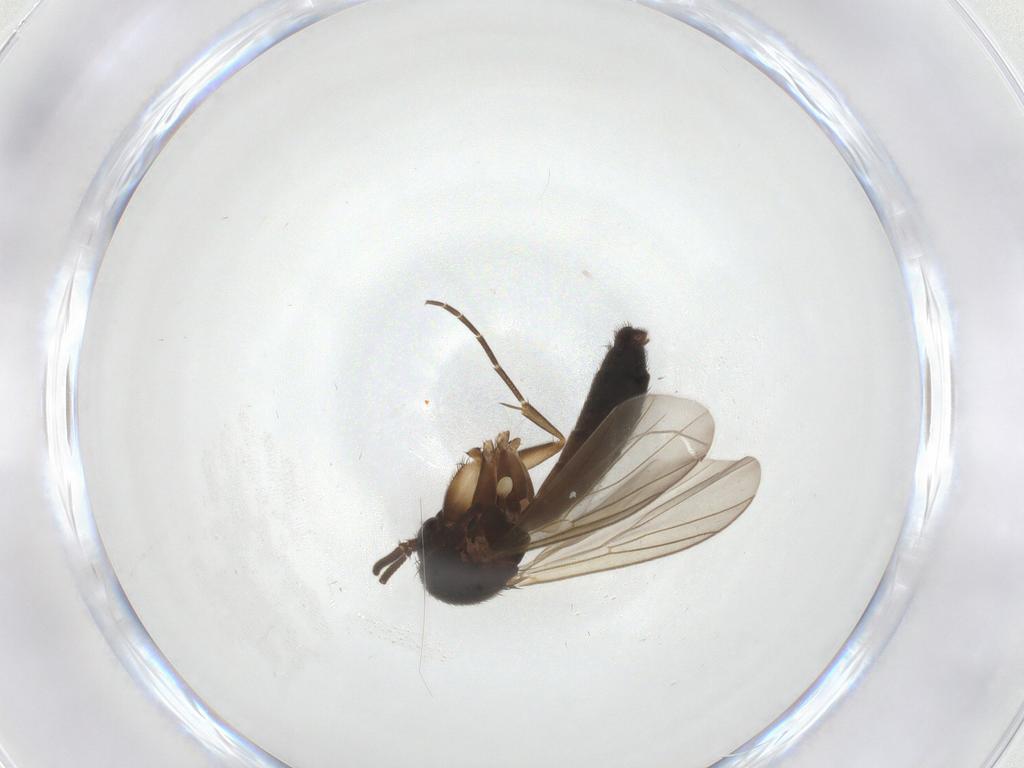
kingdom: Animalia
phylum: Arthropoda
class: Insecta
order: Diptera
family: Mycetophilidae
